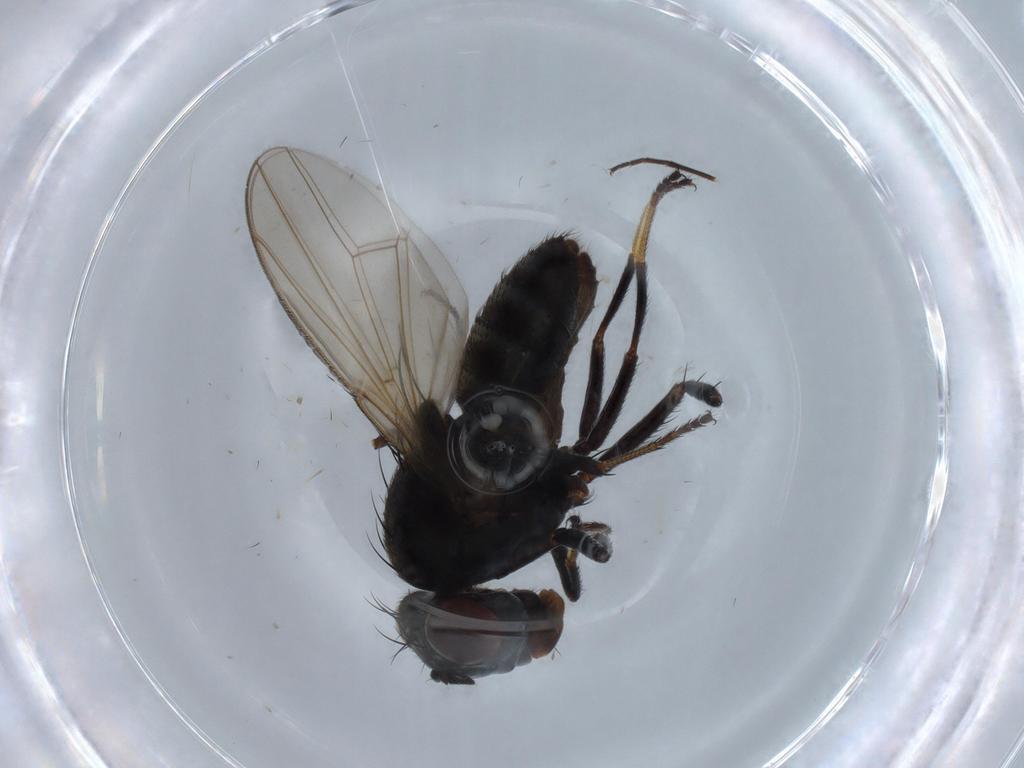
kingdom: Animalia
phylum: Arthropoda
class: Insecta
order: Diptera
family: Ephydridae
